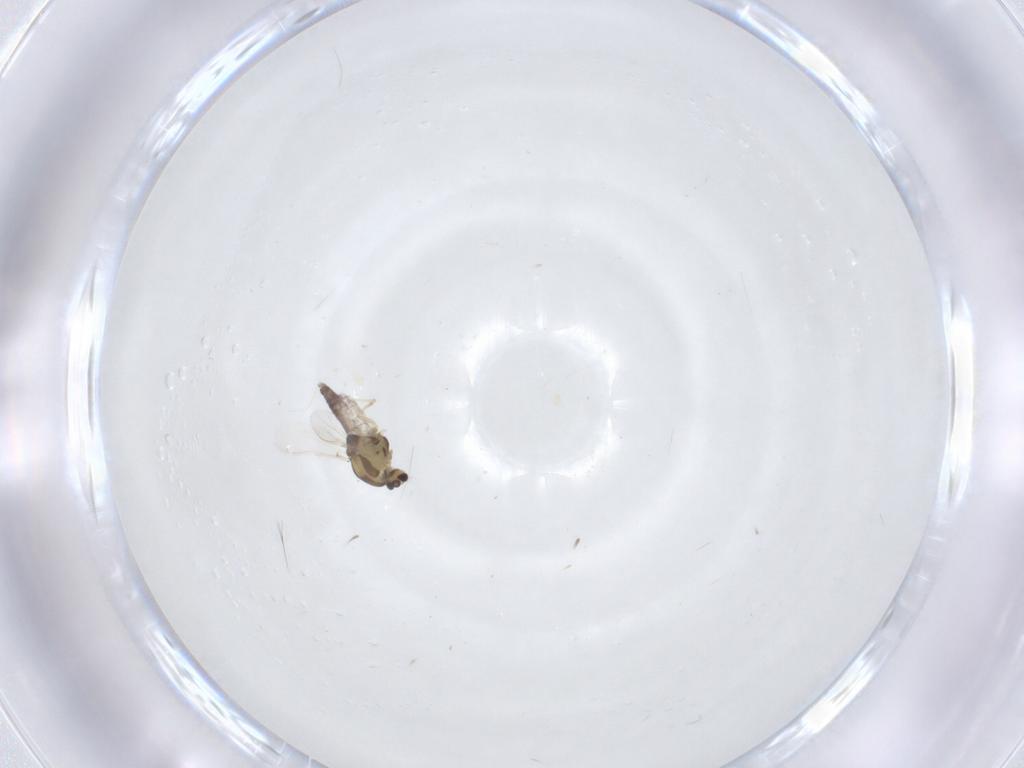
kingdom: Animalia
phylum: Arthropoda
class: Insecta
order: Diptera
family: Chironomidae
